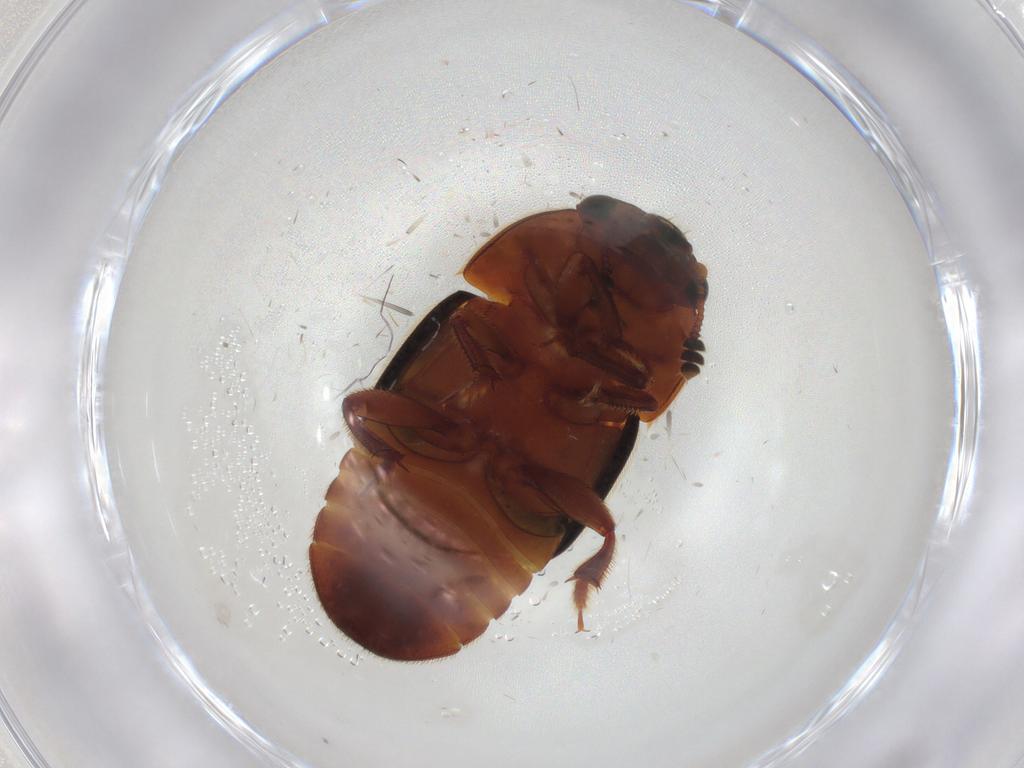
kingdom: Animalia
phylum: Arthropoda
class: Insecta
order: Coleoptera
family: Nitidulidae
